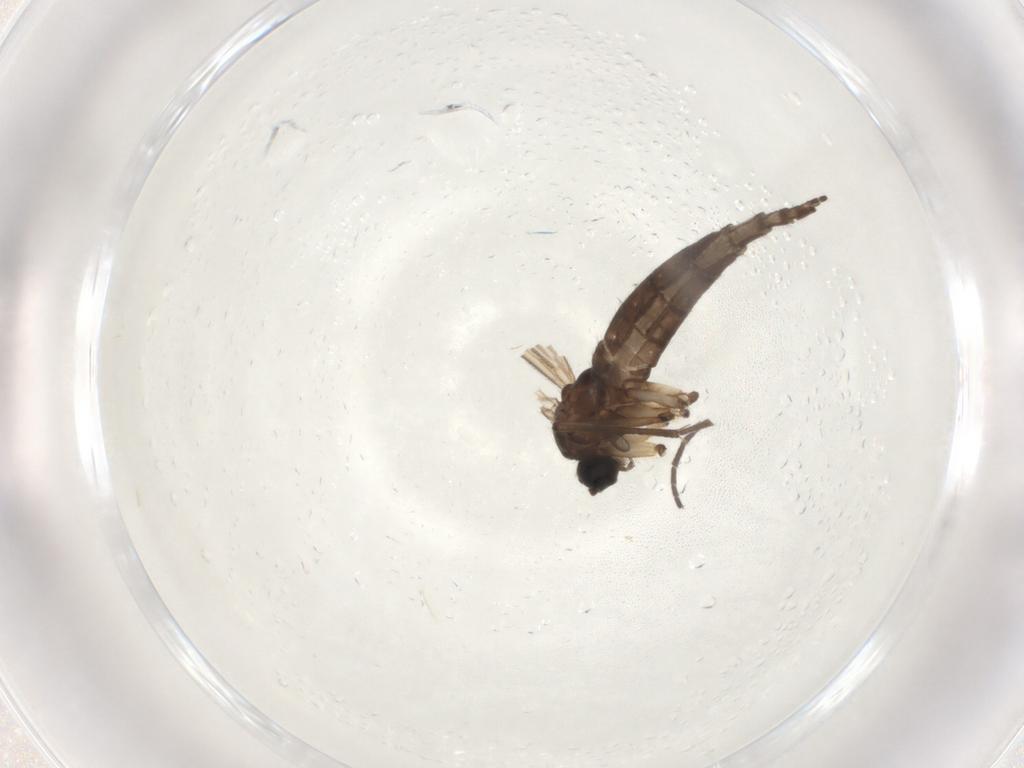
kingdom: Animalia
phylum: Arthropoda
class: Insecta
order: Diptera
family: Sciaridae
